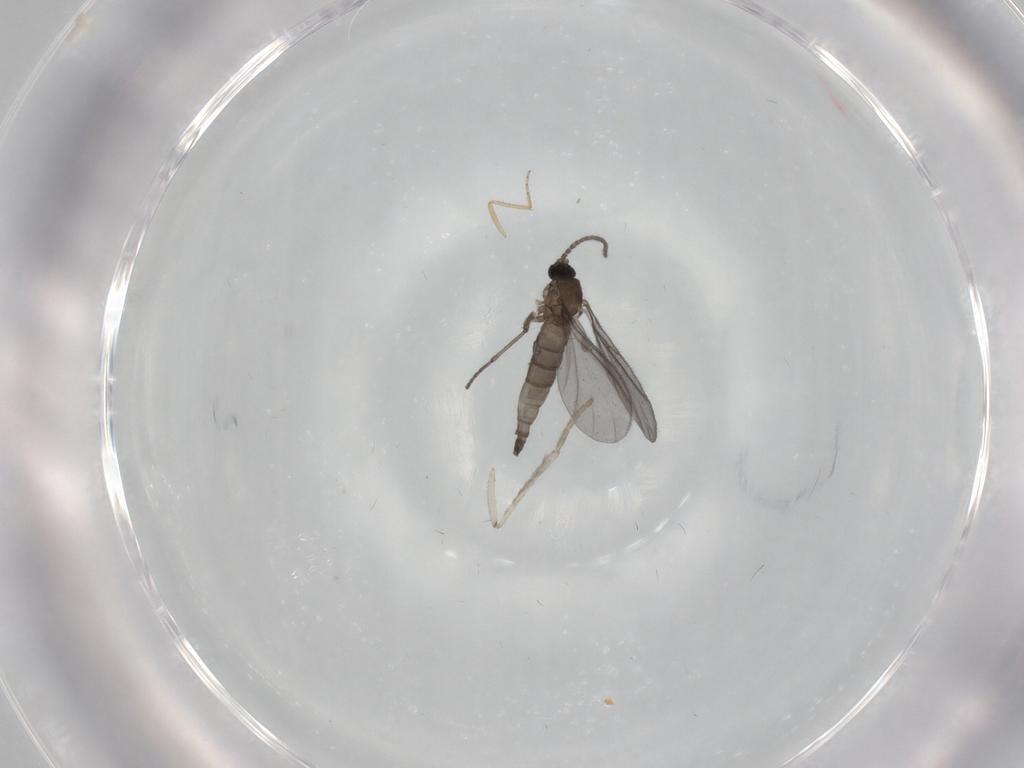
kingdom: Animalia
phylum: Arthropoda
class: Insecta
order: Diptera
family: Sciaridae
